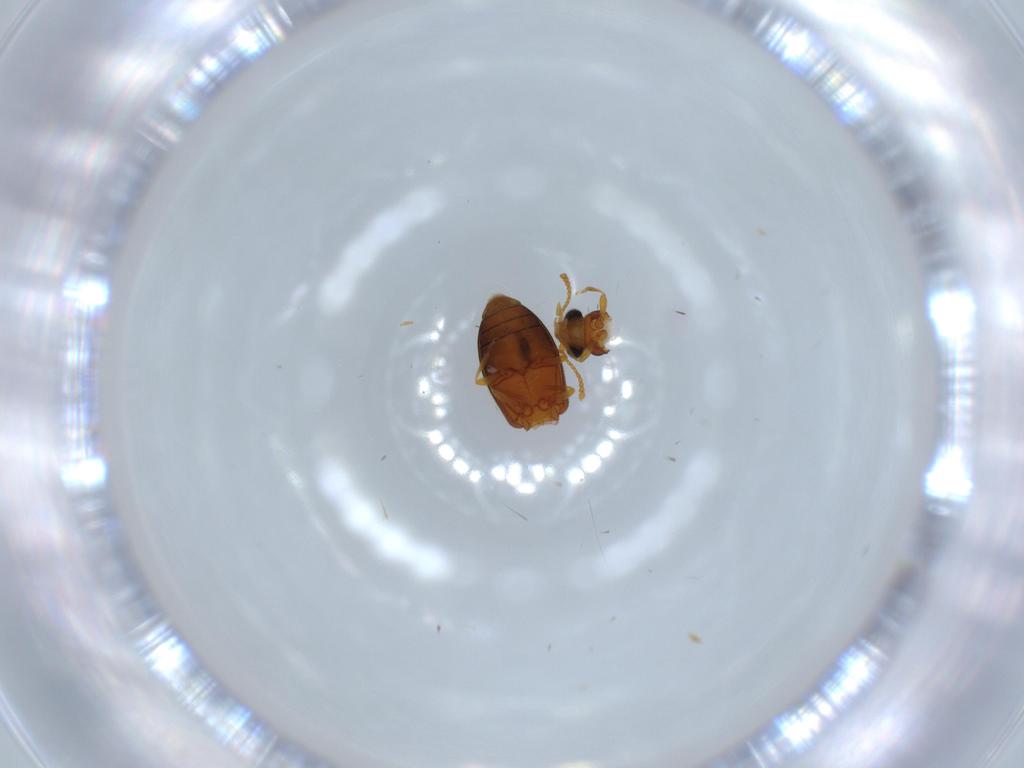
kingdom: Animalia
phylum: Arthropoda
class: Insecta
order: Coleoptera
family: Aderidae
